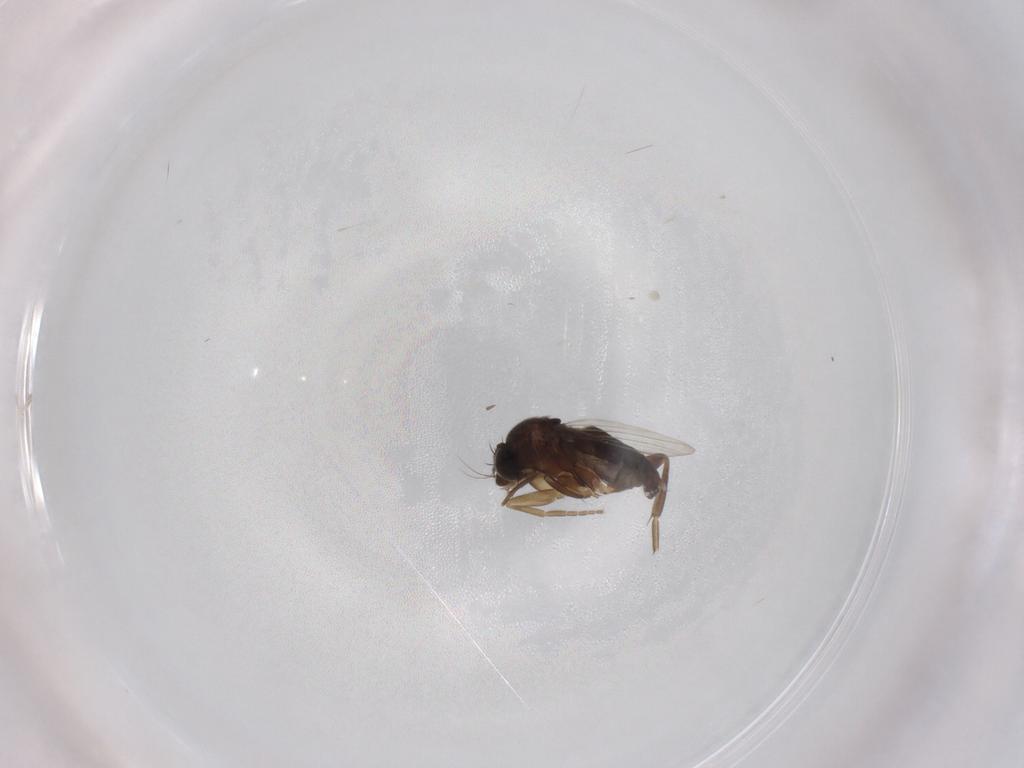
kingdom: Animalia
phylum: Arthropoda
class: Insecta
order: Diptera
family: Phoridae
